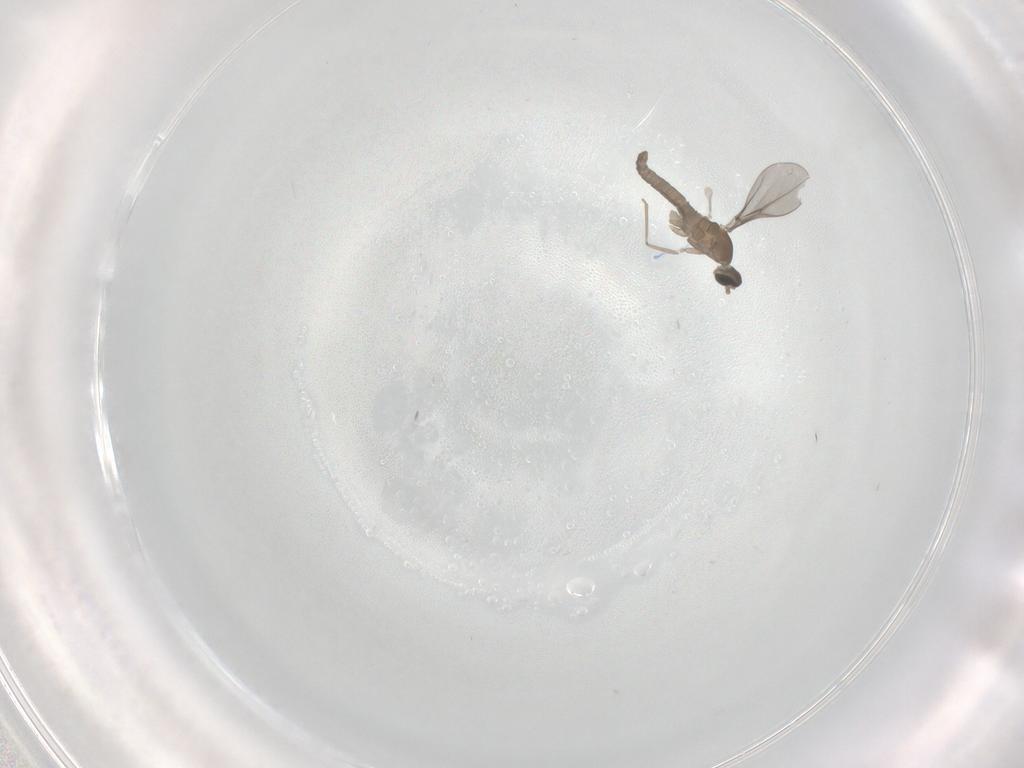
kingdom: Animalia
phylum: Arthropoda
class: Insecta
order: Diptera
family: Cecidomyiidae
